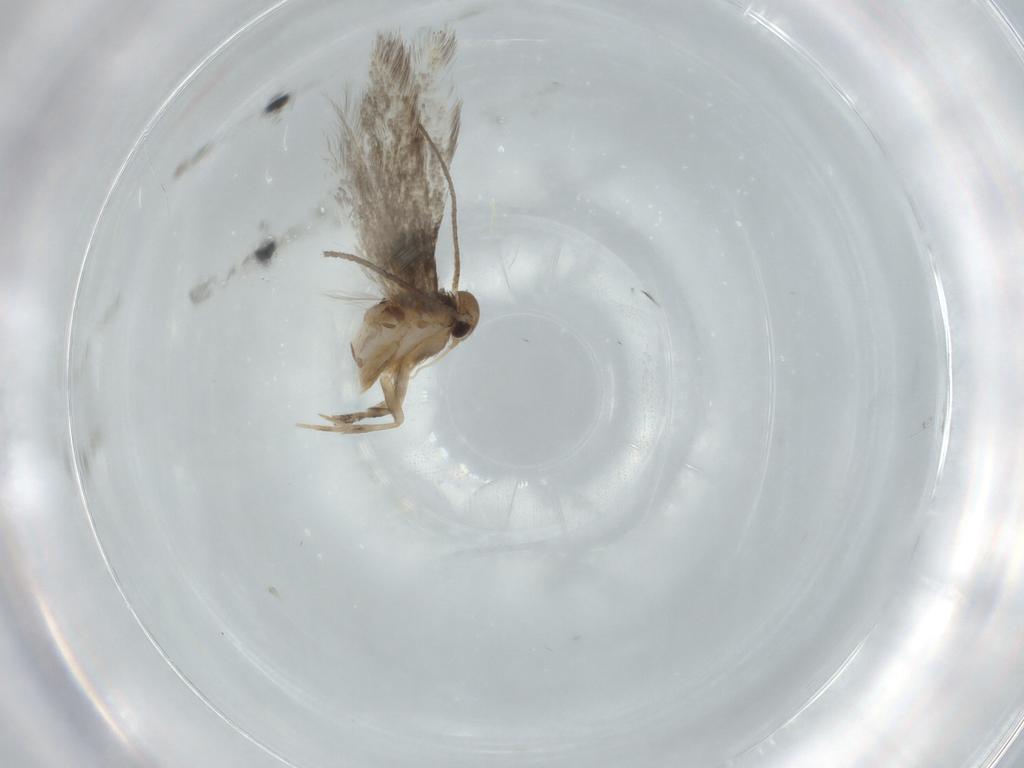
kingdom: Animalia
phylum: Arthropoda
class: Insecta
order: Lepidoptera
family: Elachistidae
